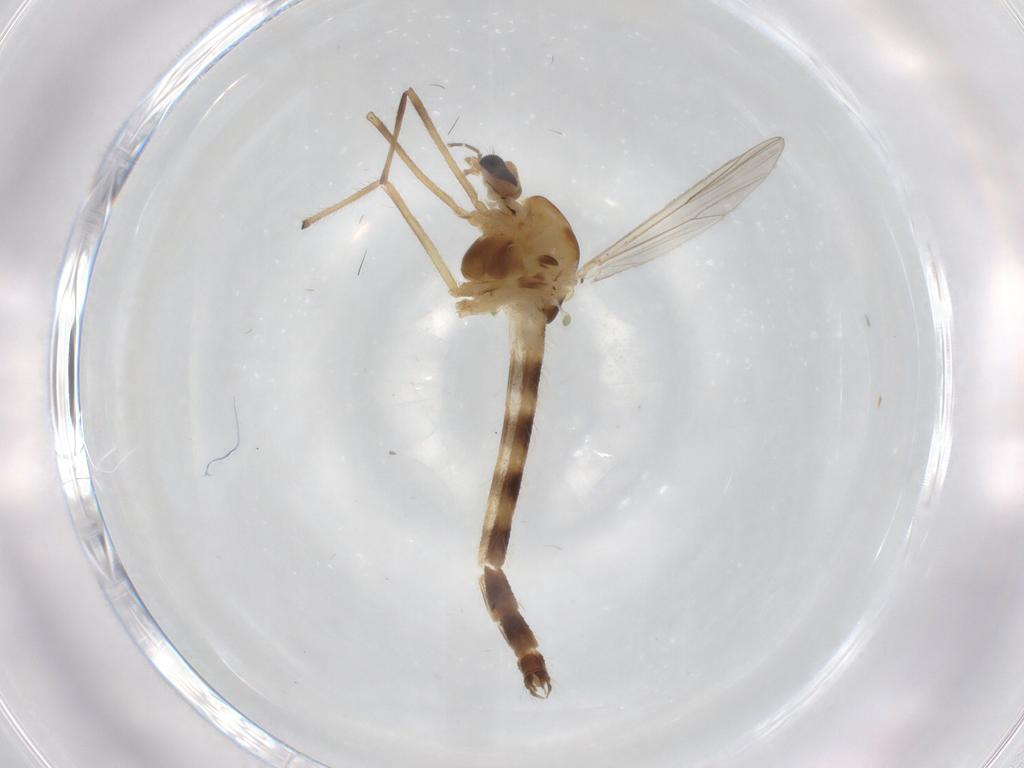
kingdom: Animalia
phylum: Arthropoda
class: Insecta
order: Diptera
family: Chironomidae
